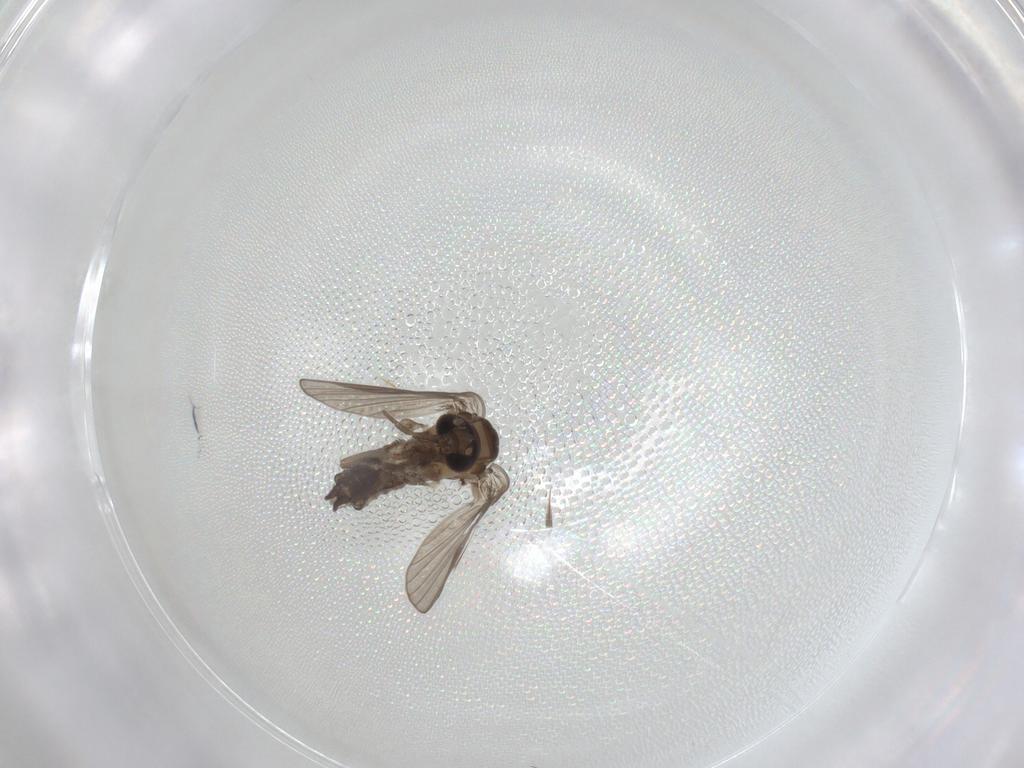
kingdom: Animalia
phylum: Arthropoda
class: Insecta
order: Diptera
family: Psychodidae
